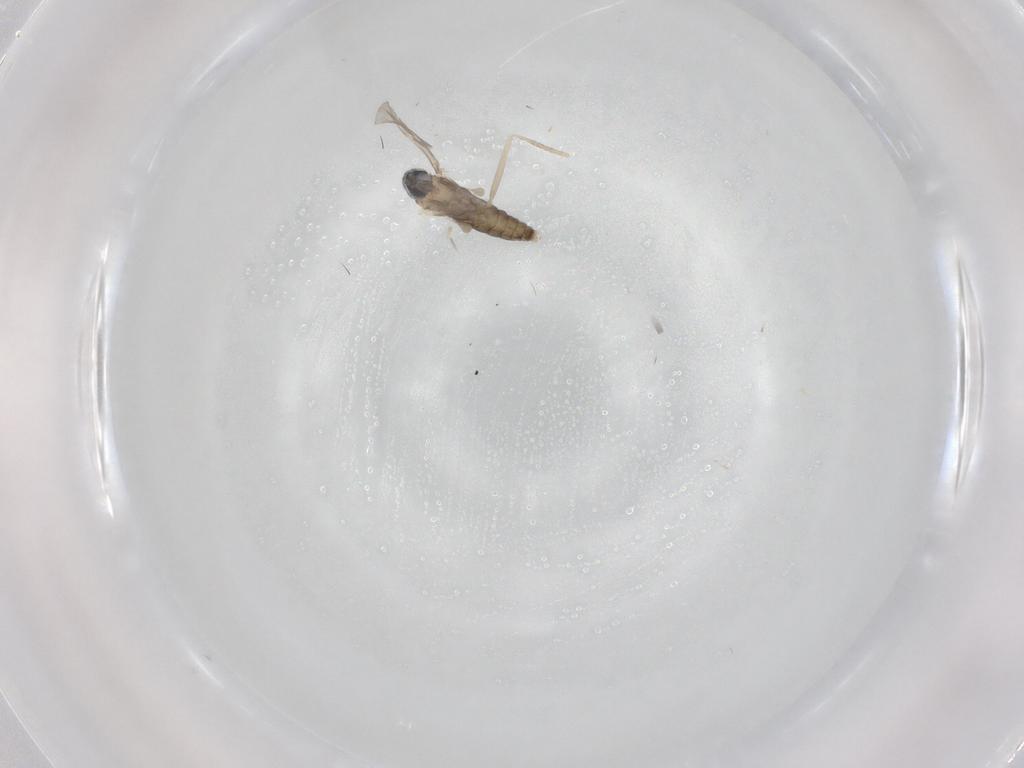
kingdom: Animalia
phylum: Arthropoda
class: Insecta
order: Diptera
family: Cecidomyiidae
